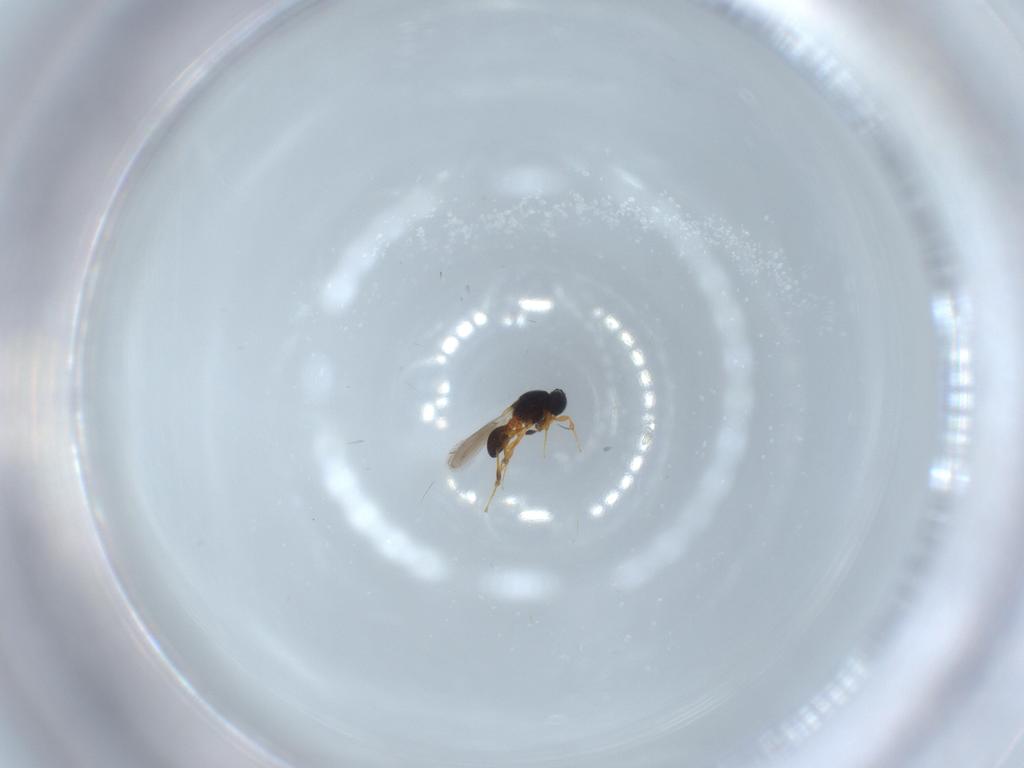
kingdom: Animalia
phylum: Arthropoda
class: Insecta
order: Hymenoptera
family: Platygastridae
